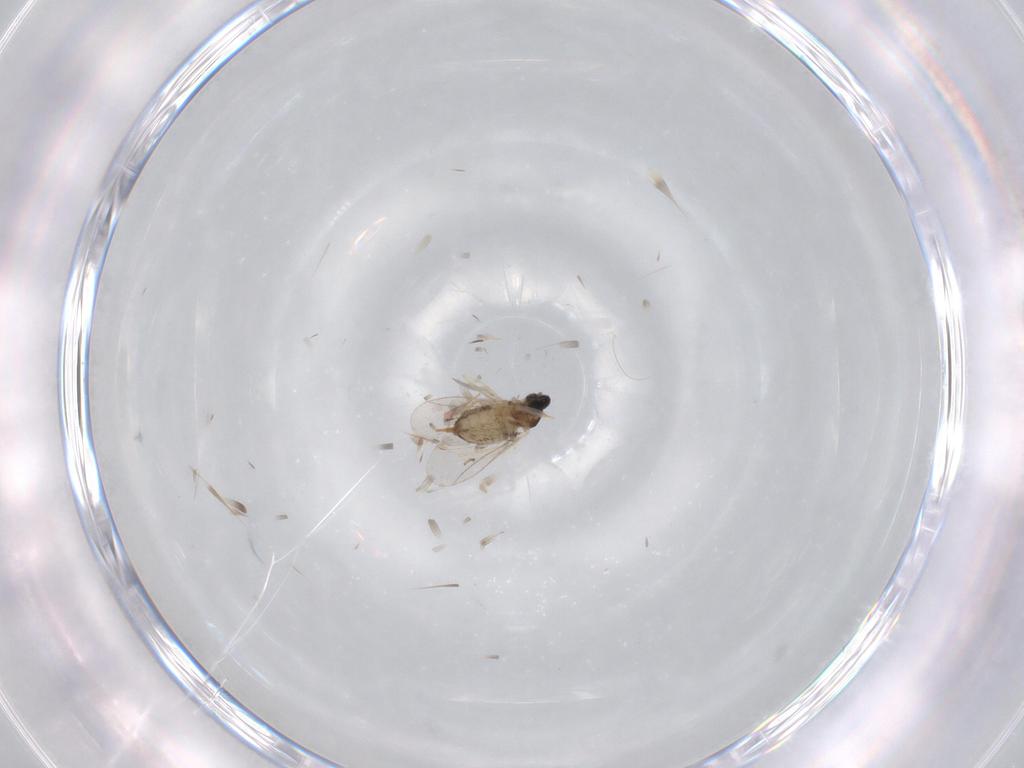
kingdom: Animalia
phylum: Arthropoda
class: Insecta
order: Diptera
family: Cecidomyiidae
